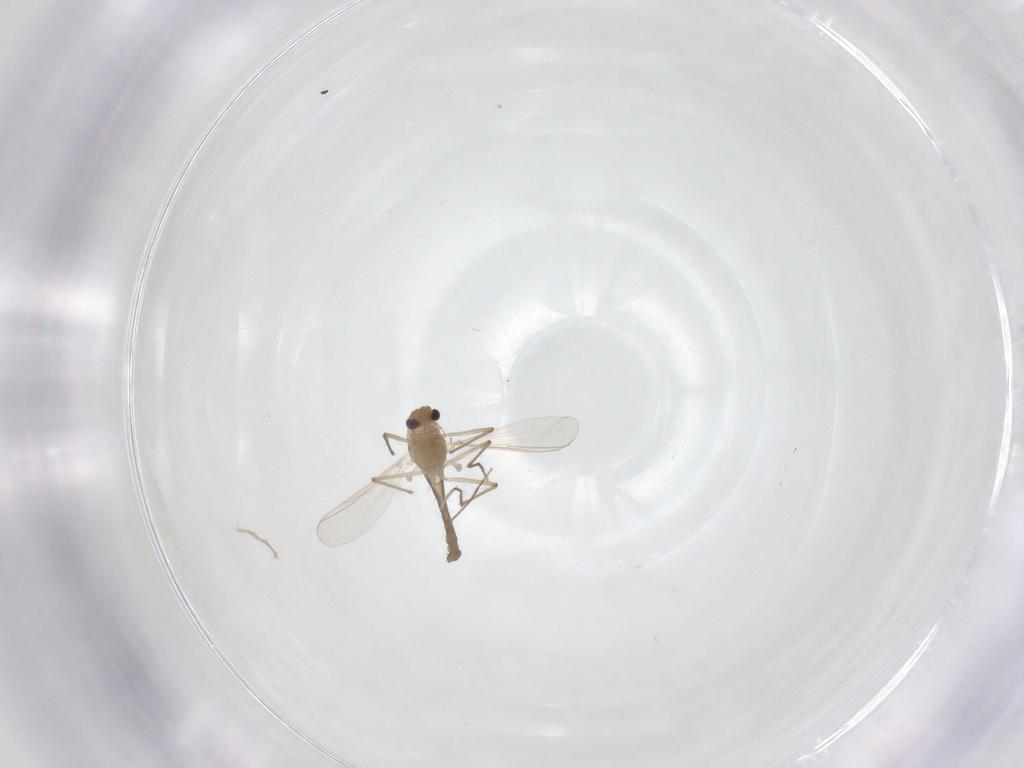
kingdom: Animalia
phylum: Arthropoda
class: Insecta
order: Diptera
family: Chironomidae
